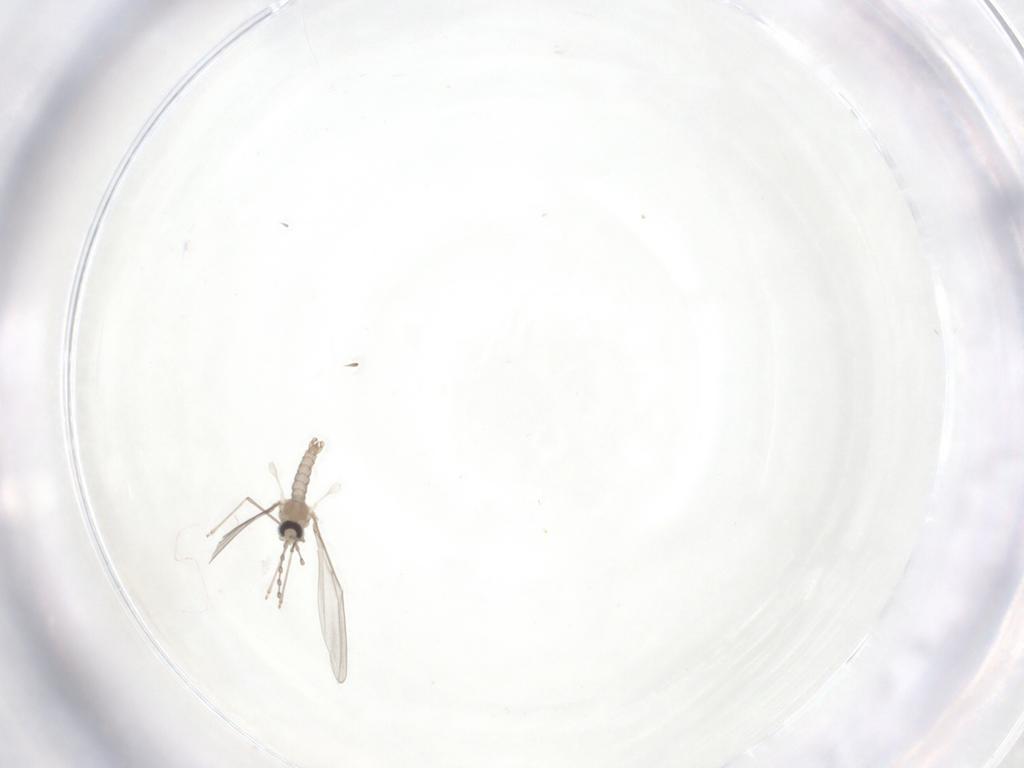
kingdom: Animalia
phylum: Arthropoda
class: Insecta
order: Diptera
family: Cecidomyiidae
